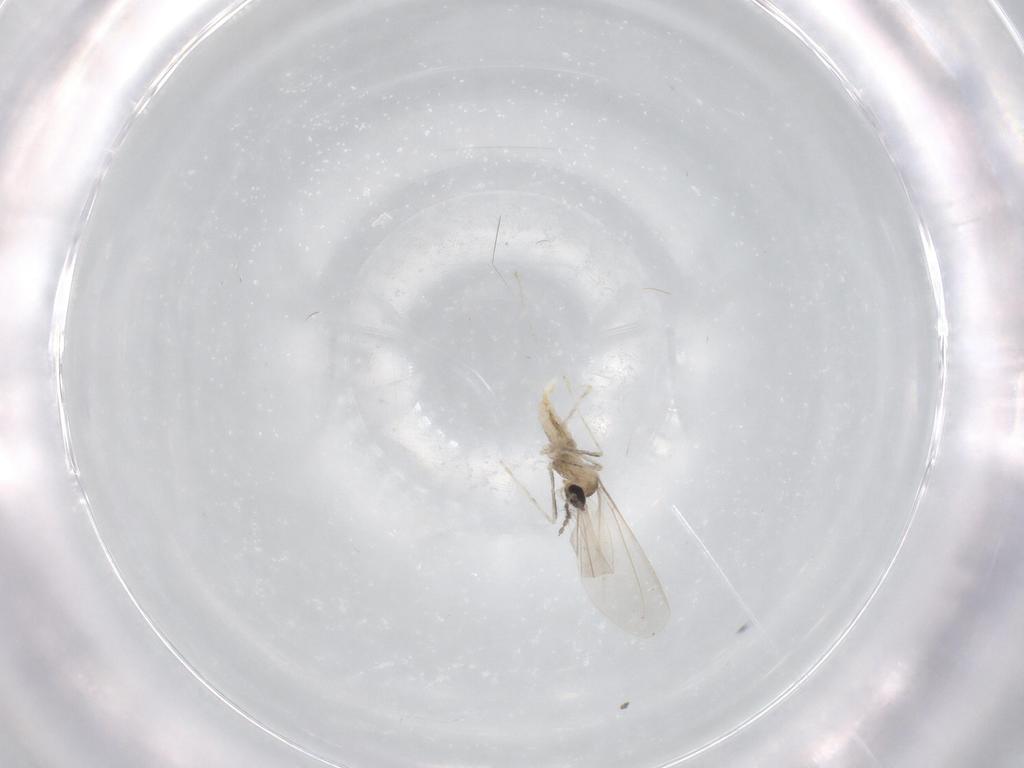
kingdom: Animalia
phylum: Arthropoda
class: Insecta
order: Diptera
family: Cecidomyiidae
